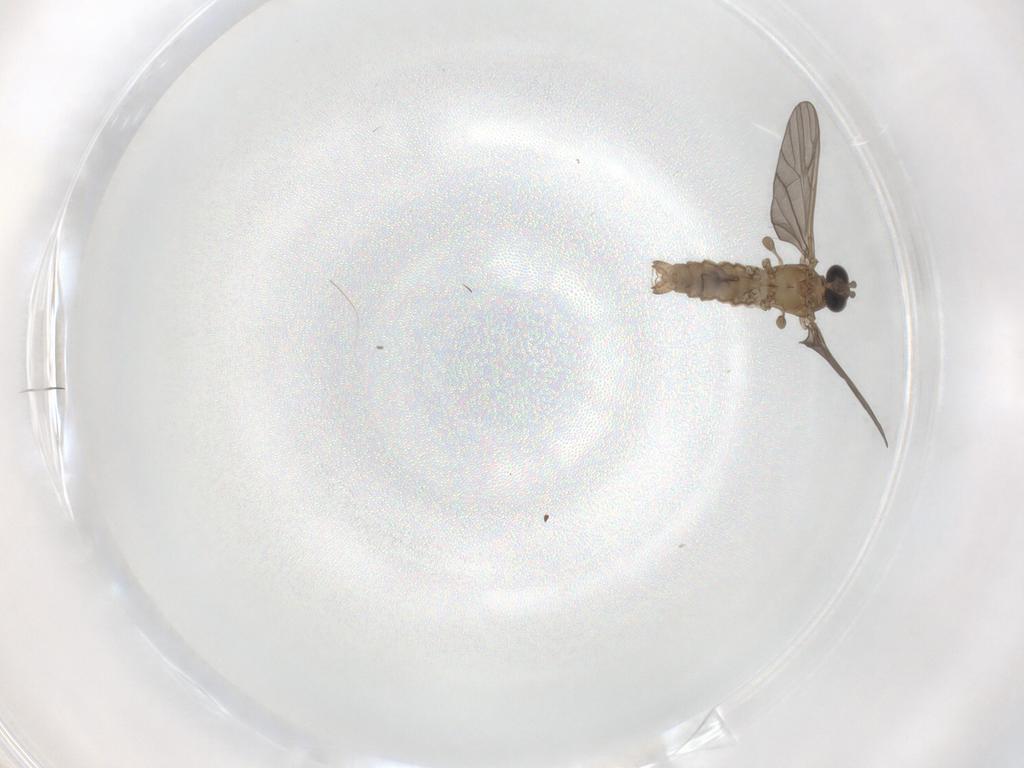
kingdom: Animalia
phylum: Arthropoda
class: Insecta
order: Diptera
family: Limoniidae
